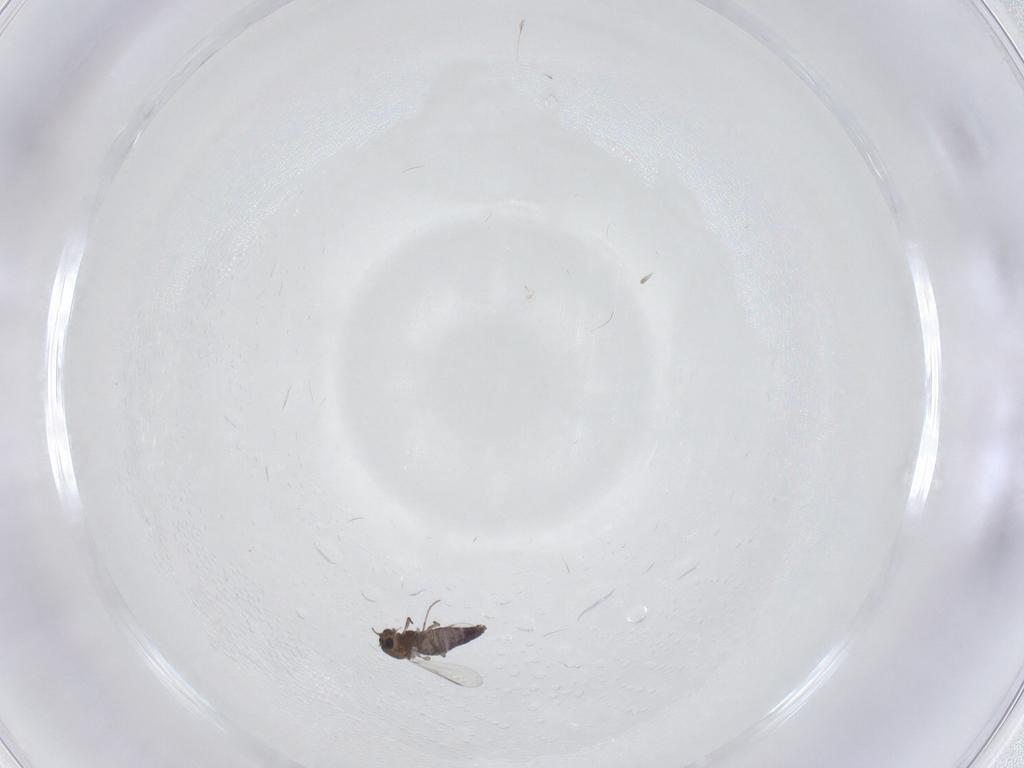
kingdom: Animalia
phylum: Arthropoda
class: Insecta
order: Diptera
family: Chironomidae
